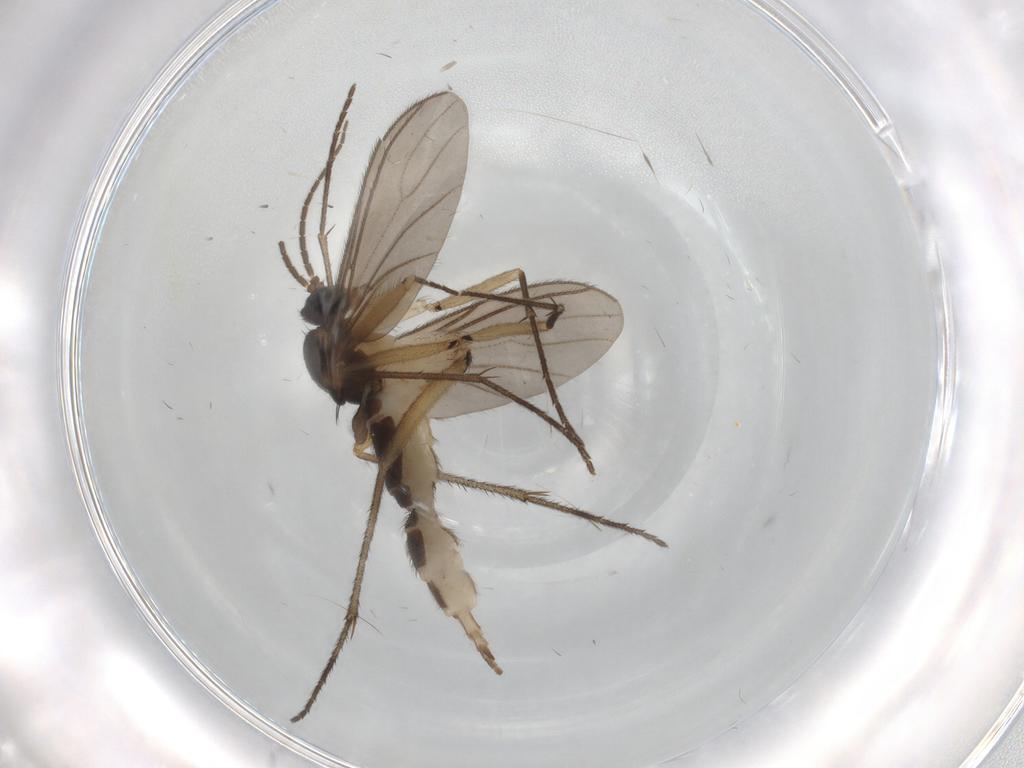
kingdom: Animalia
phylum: Arthropoda
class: Insecta
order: Diptera
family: Sciaridae
